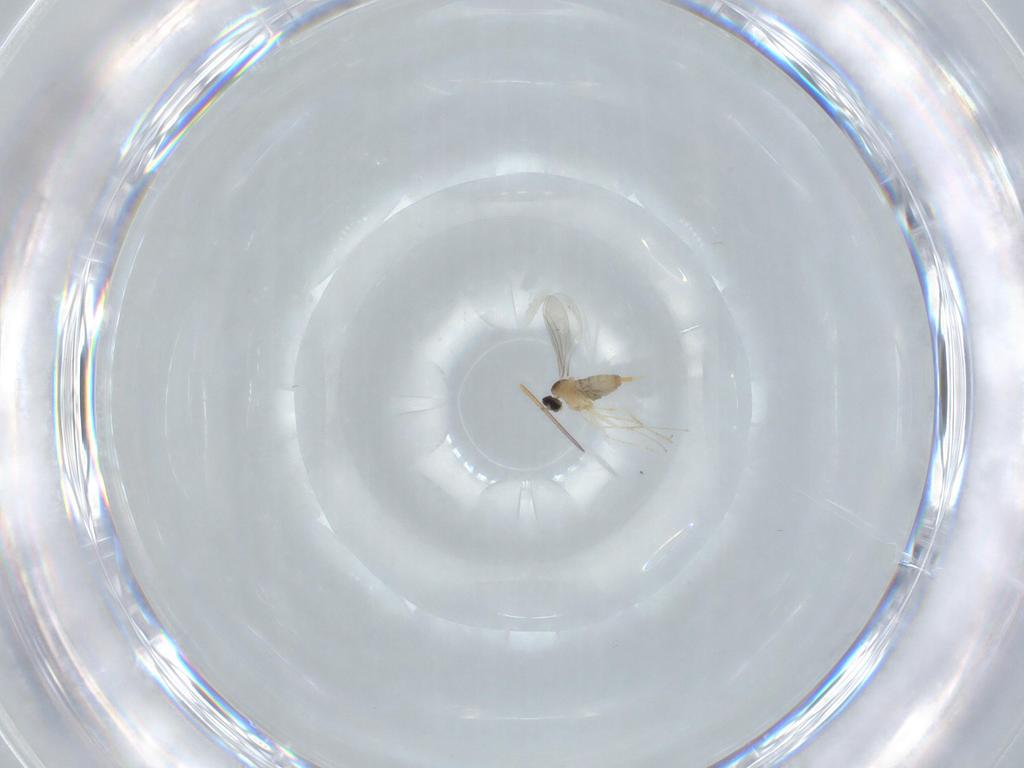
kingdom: Animalia
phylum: Arthropoda
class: Insecta
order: Diptera
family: Cecidomyiidae
